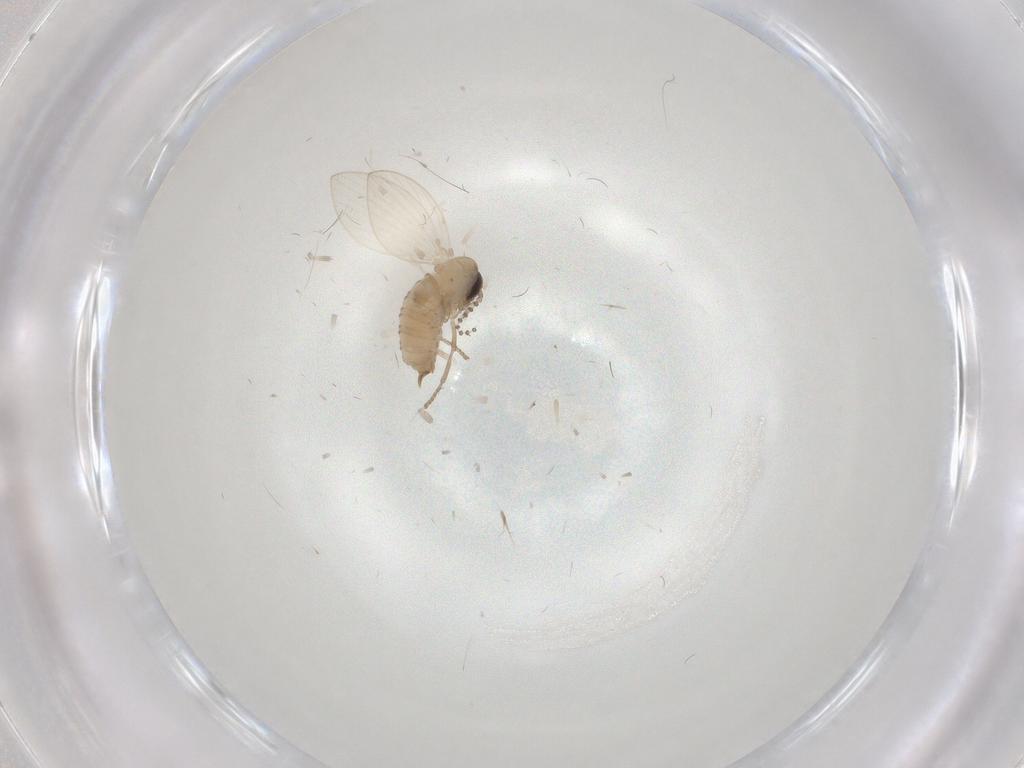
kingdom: Animalia
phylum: Arthropoda
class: Insecta
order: Diptera
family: Psychodidae
